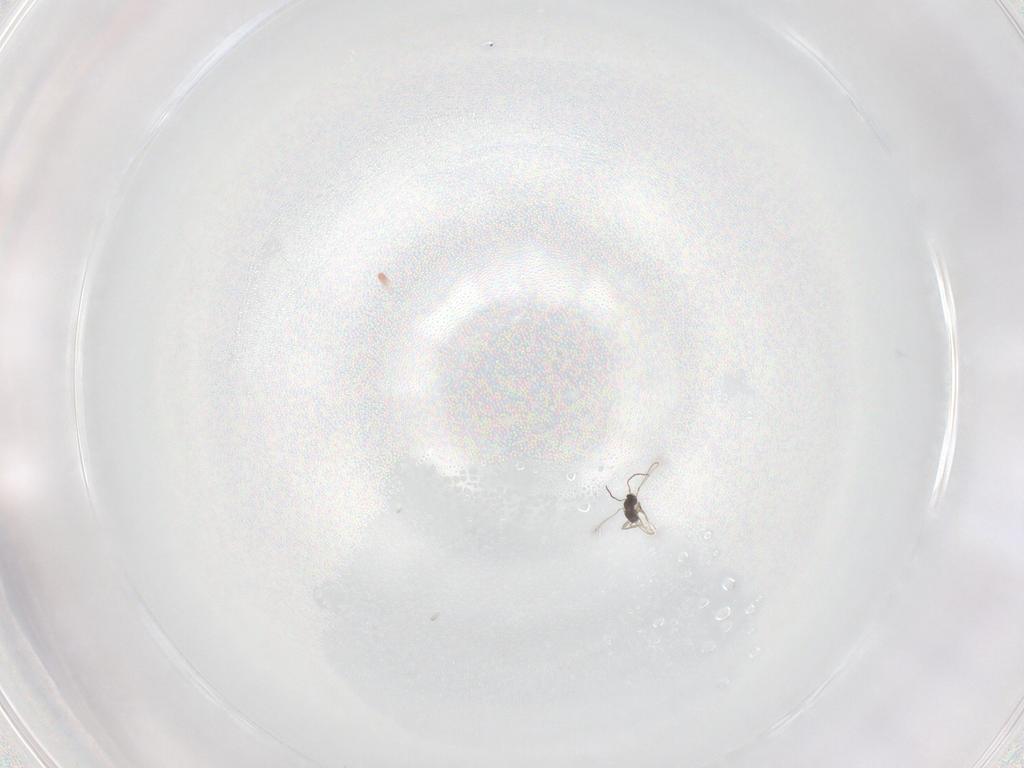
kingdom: Animalia
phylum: Arthropoda
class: Insecta
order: Hymenoptera
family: Mymaridae
